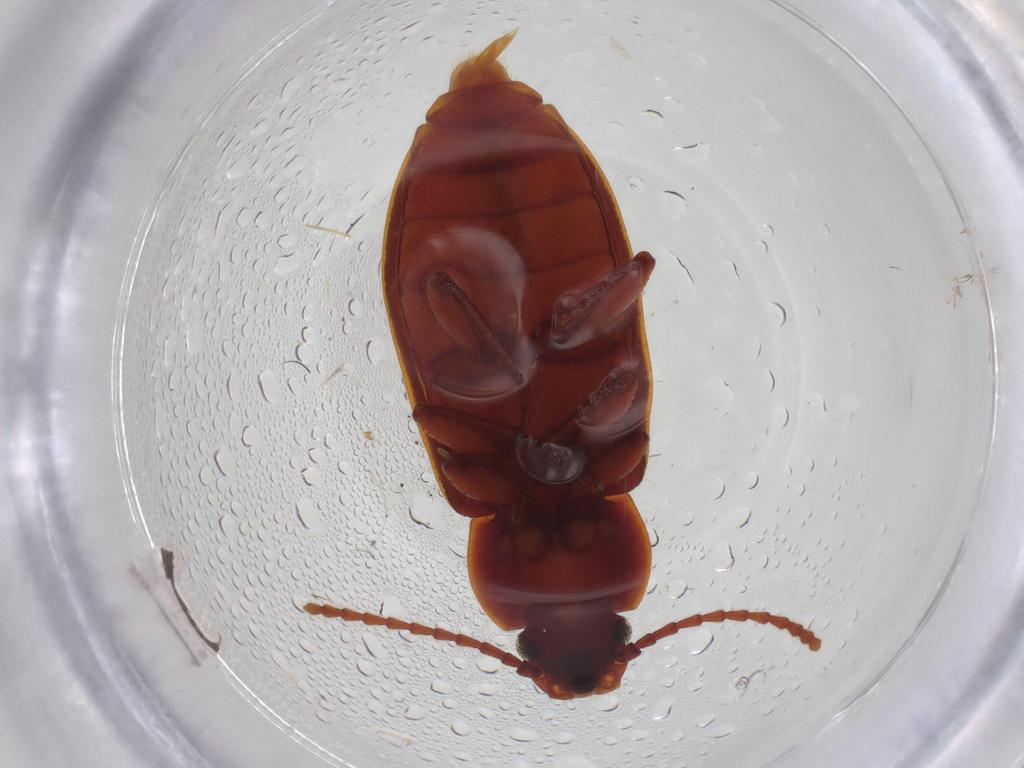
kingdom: Animalia
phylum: Arthropoda
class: Insecta
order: Coleoptera
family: Tenebrionidae
